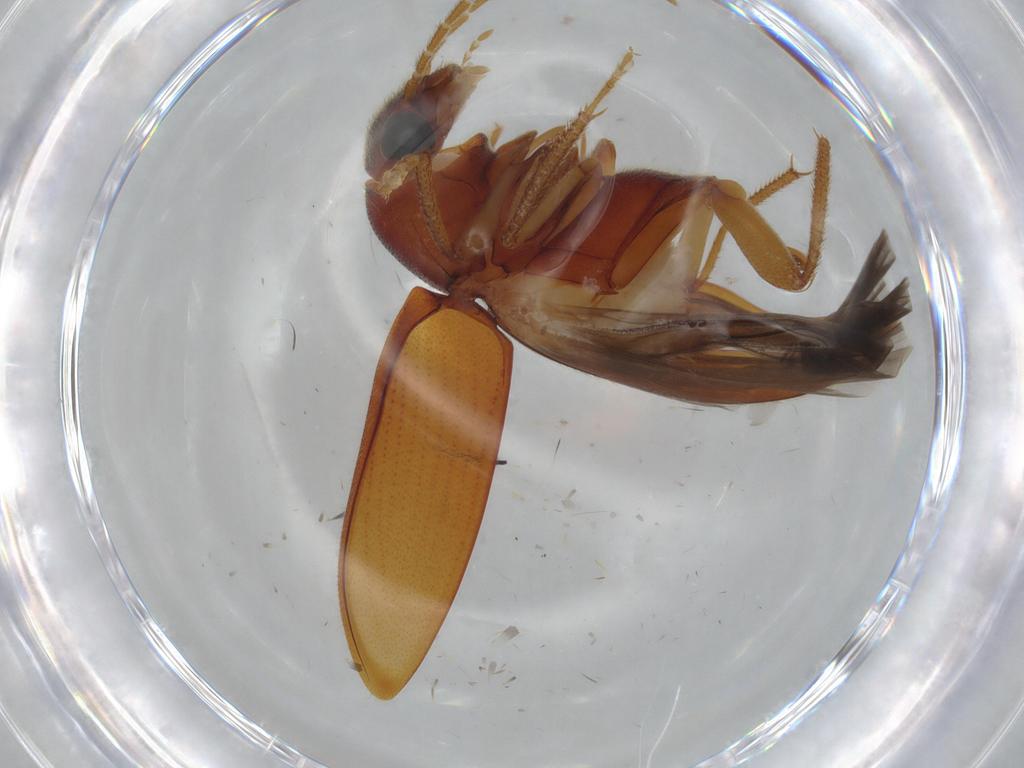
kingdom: Animalia
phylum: Arthropoda
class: Insecta
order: Coleoptera
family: Ptilodactylidae
